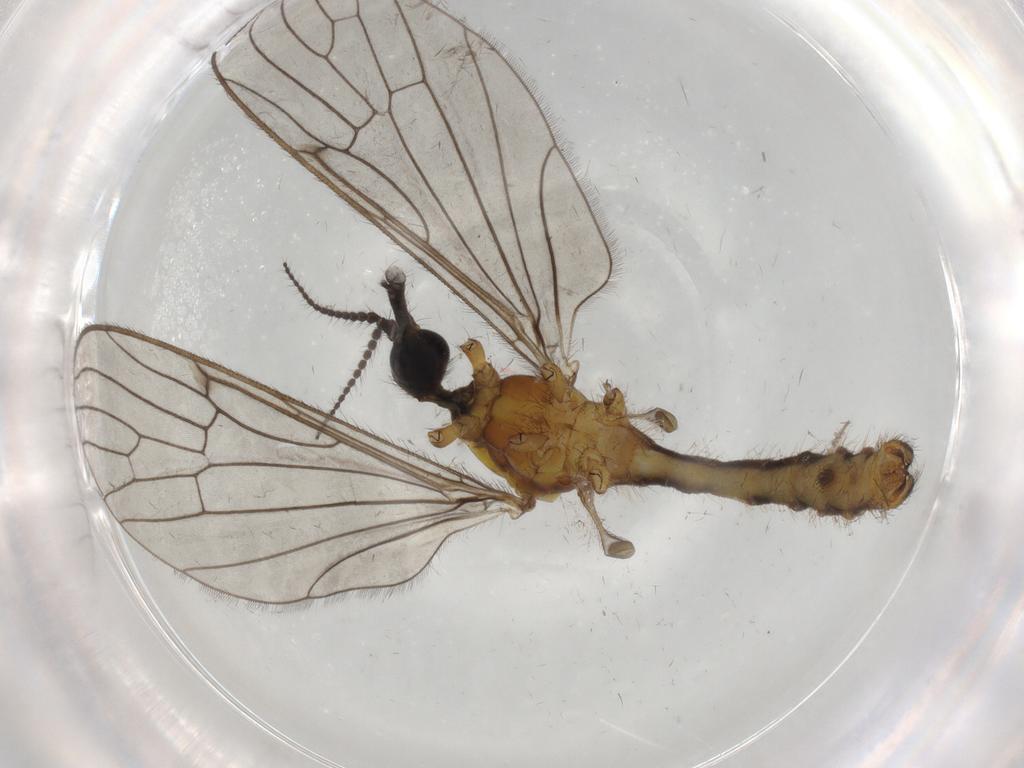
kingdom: Animalia
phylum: Arthropoda
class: Insecta
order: Diptera
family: Limoniidae
